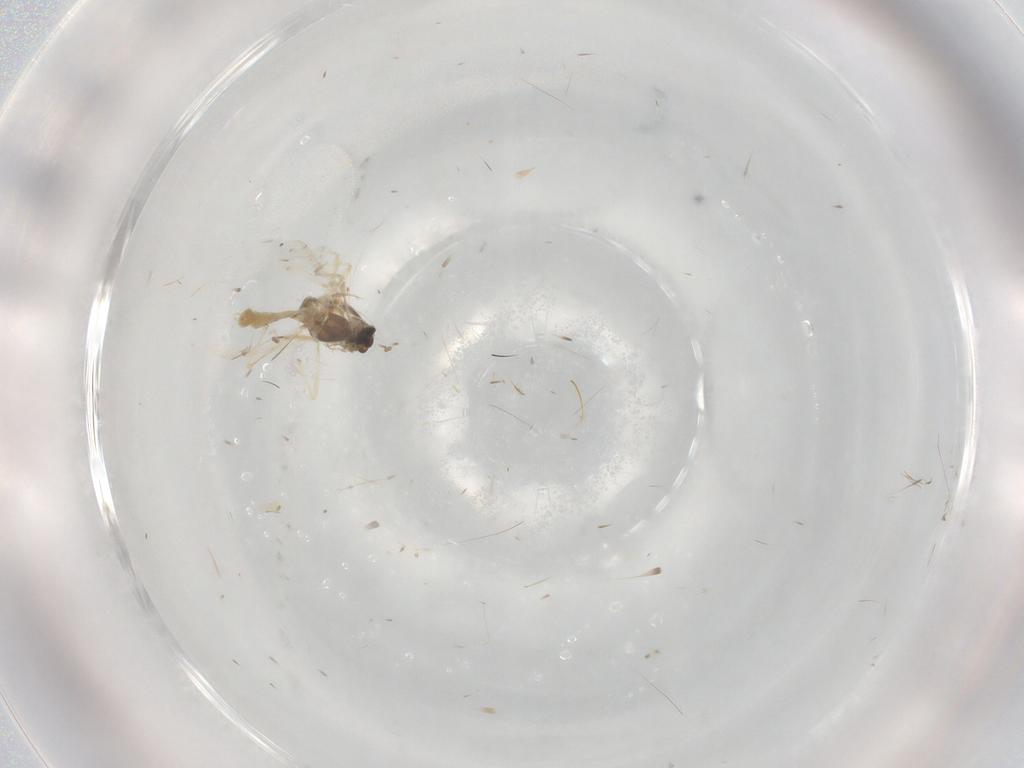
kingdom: Animalia
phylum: Arthropoda
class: Insecta
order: Diptera
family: Chironomidae
